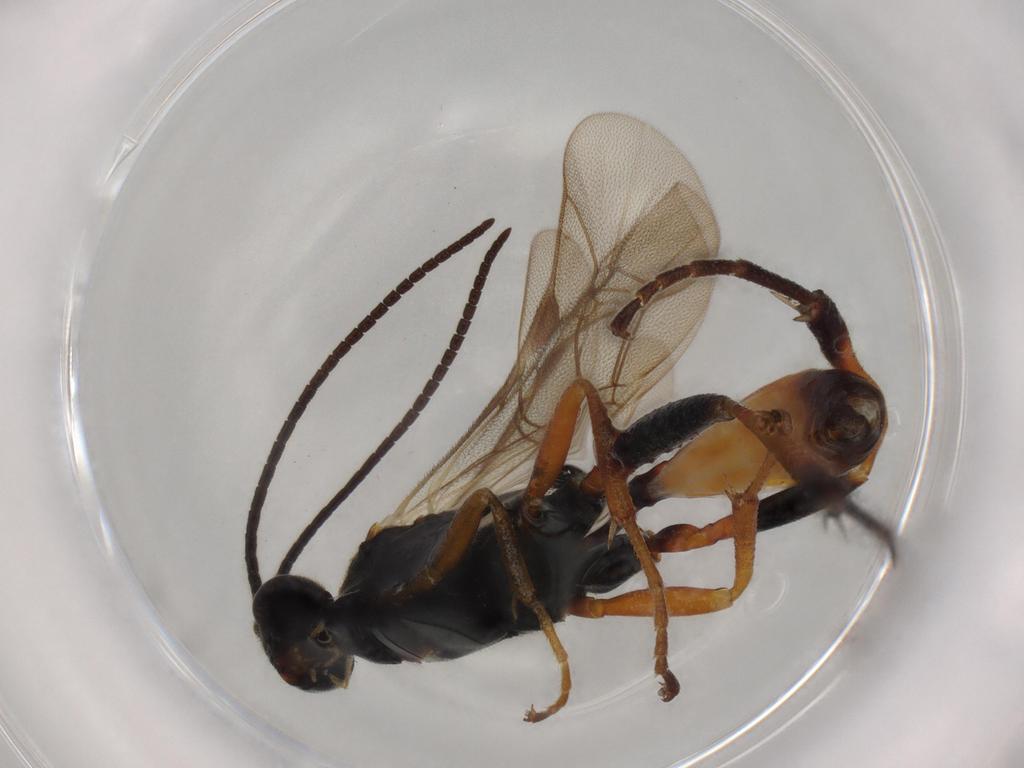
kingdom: Animalia
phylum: Arthropoda
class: Insecta
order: Hymenoptera
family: Ichneumonidae
